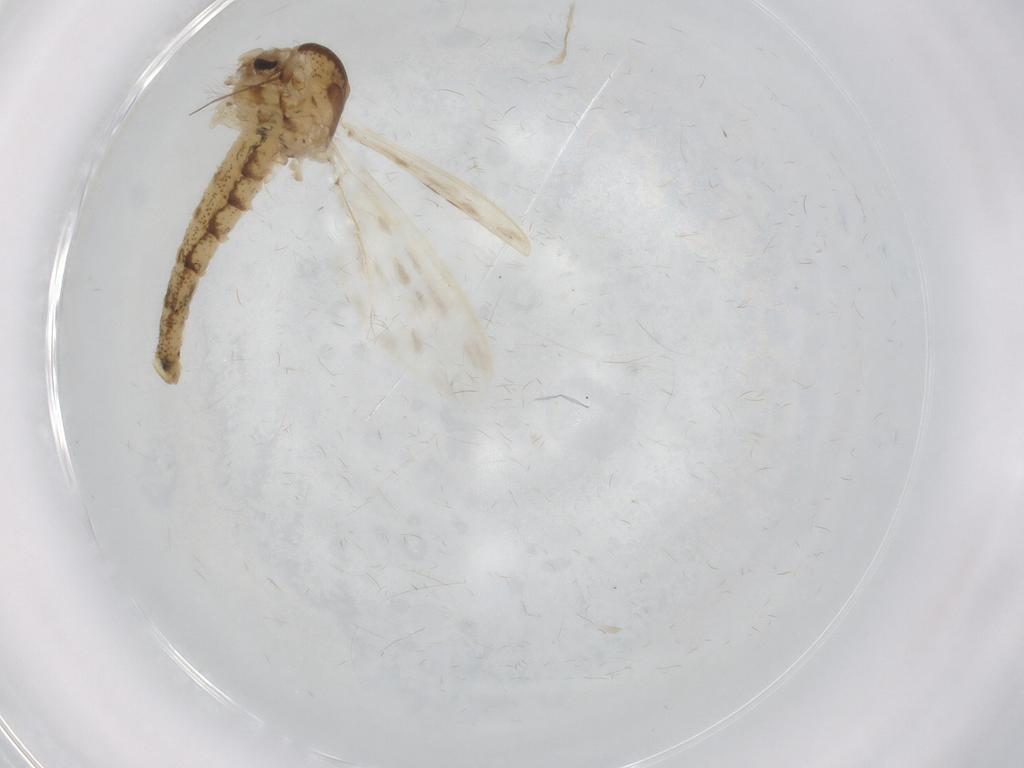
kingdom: Animalia
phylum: Arthropoda
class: Insecta
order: Diptera
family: Chaoboridae
